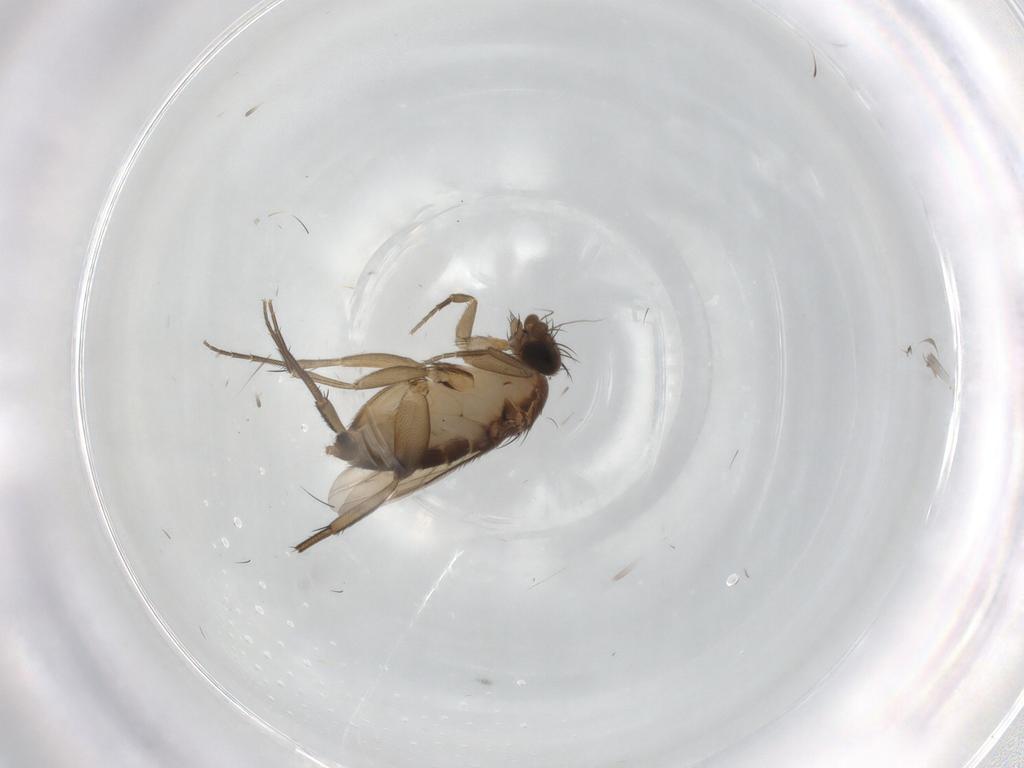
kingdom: Animalia
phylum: Arthropoda
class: Insecta
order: Diptera
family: Phoridae
